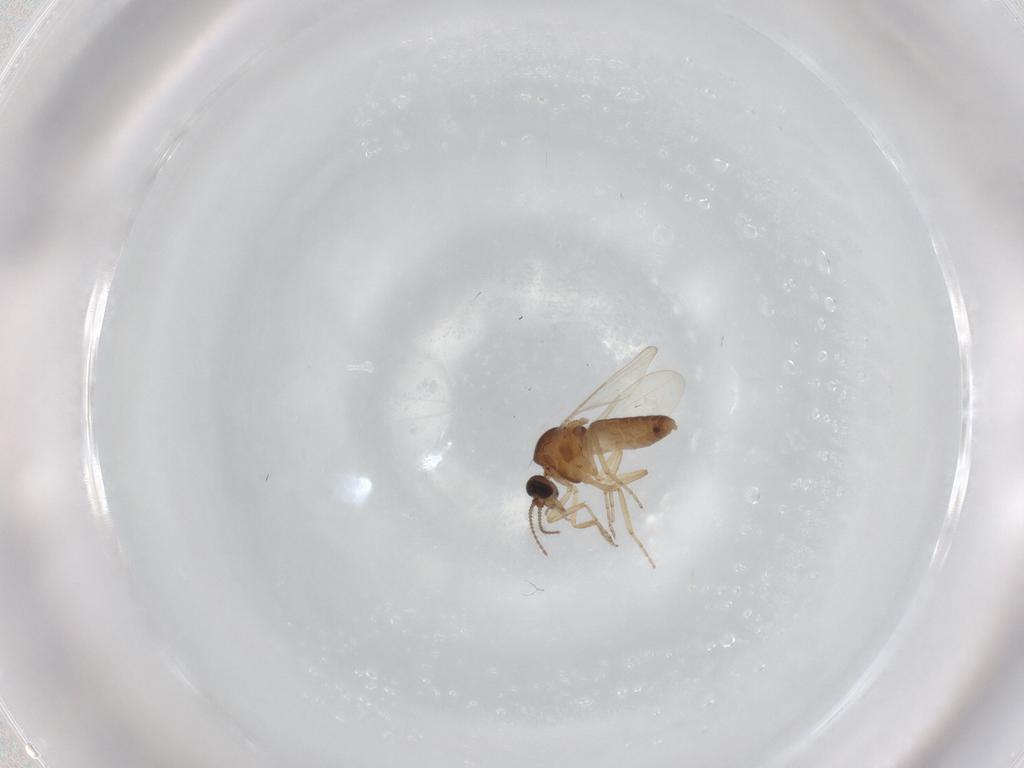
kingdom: Animalia
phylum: Arthropoda
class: Insecta
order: Diptera
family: Ceratopogonidae
